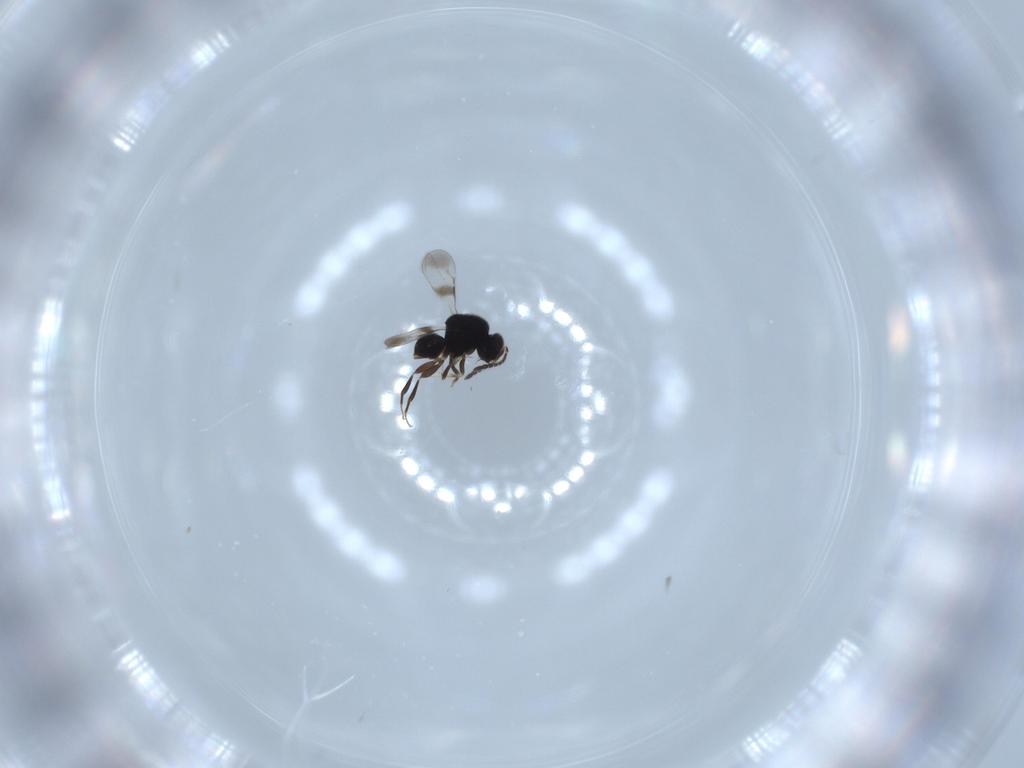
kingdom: Animalia
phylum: Arthropoda
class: Insecta
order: Hymenoptera
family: Ceraphronidae
